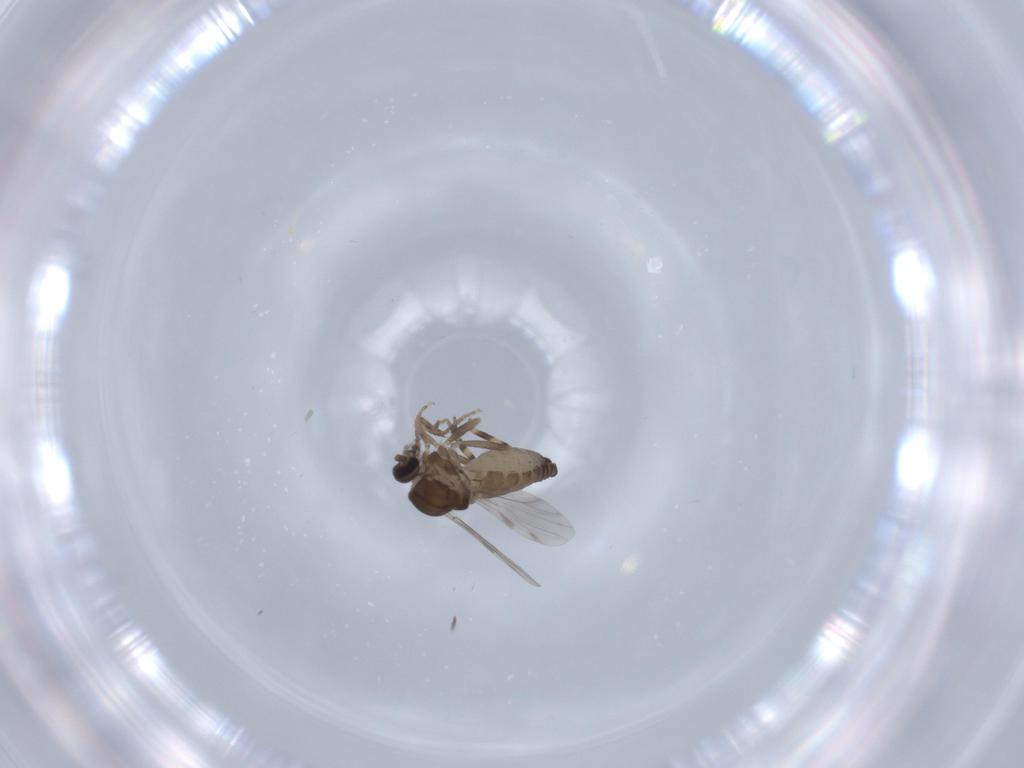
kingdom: Animalia
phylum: Arthropoda
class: Insecta
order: Diptera
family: Ceratopogonidae
